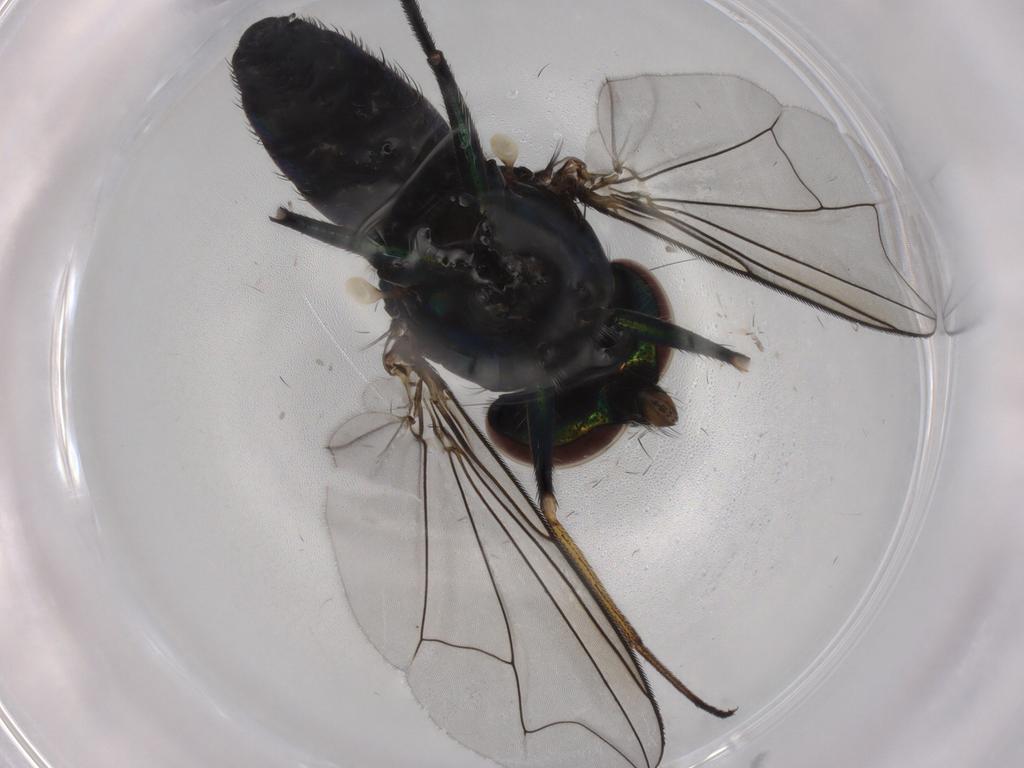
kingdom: Animalia
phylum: Arthropoda
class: Insecta
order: Diptera
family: Dolichopodidae
